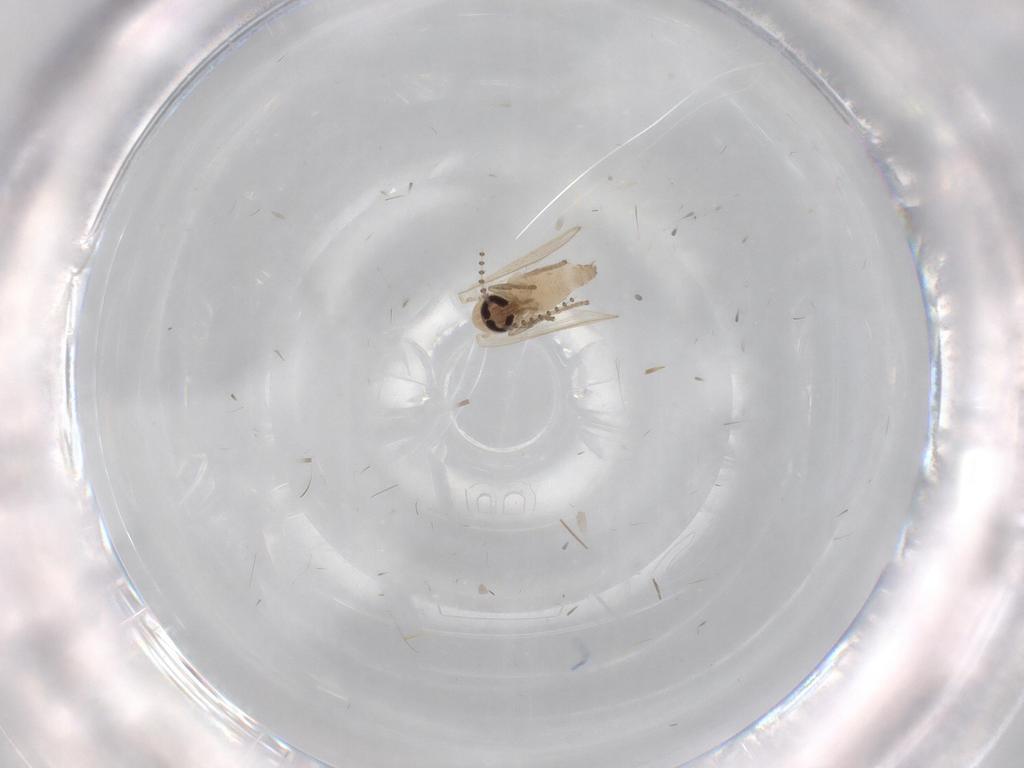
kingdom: Animalia
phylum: Arthropoda
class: Insecta
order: Diptera
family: Psychodidae
